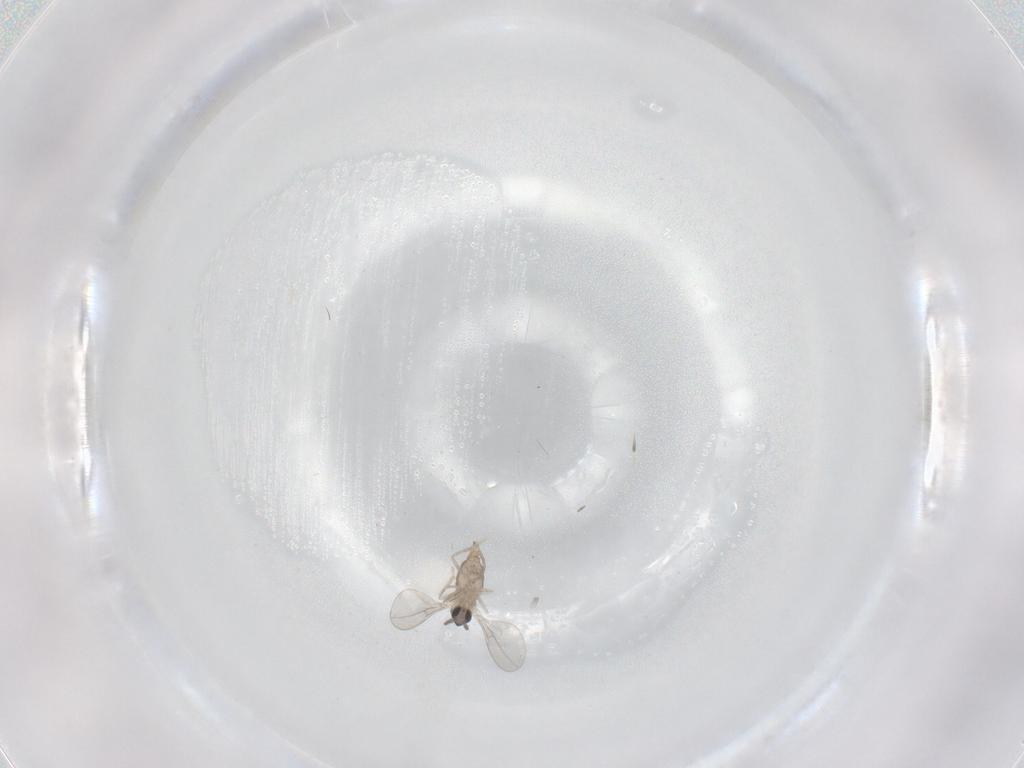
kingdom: Animalia
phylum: Arthropoda
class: Insecta
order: Diptera
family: Cecidomyiidae
